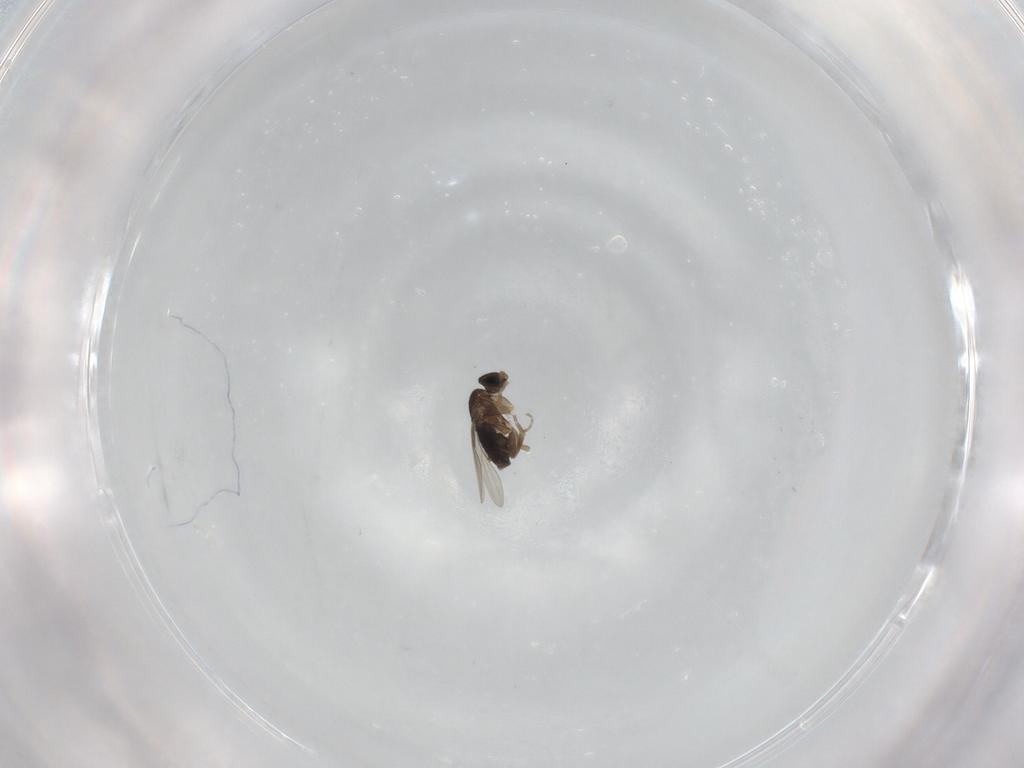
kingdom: Animalia
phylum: Arthropoda
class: Insecta
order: Diptera
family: Phoridae
